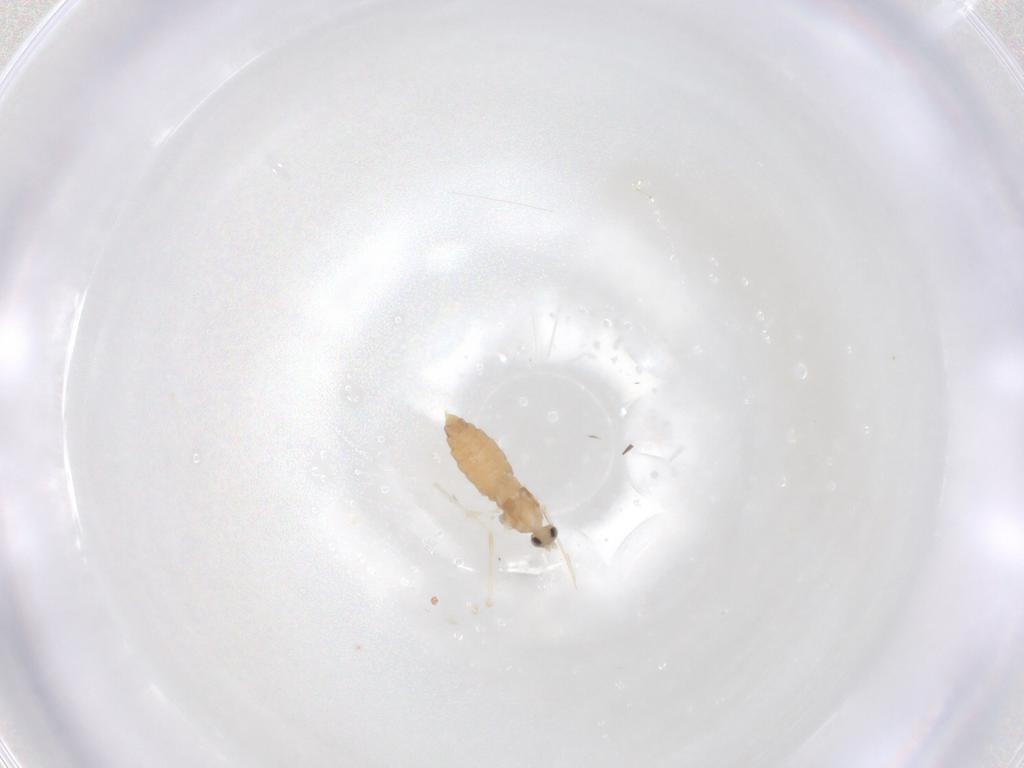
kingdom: Animalia
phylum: Arthropoda
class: Insecta
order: Diptera
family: Cecidomyiidae
